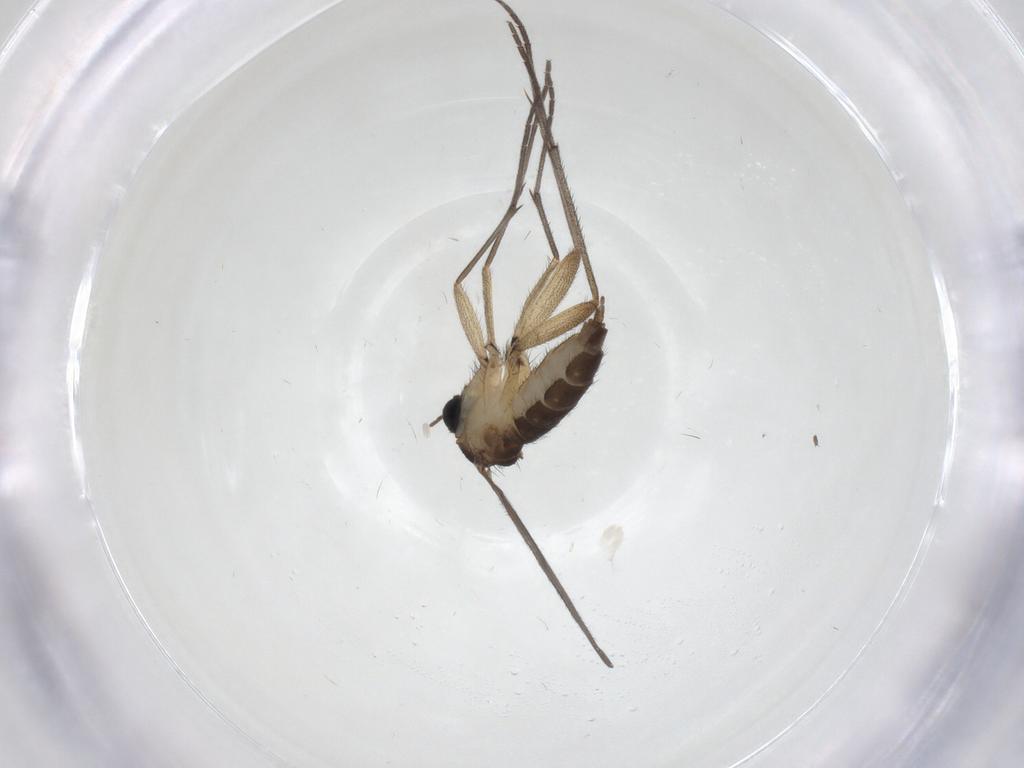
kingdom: Animalia
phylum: Arthropoda
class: Insecta
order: Diptera
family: Sciaridae
